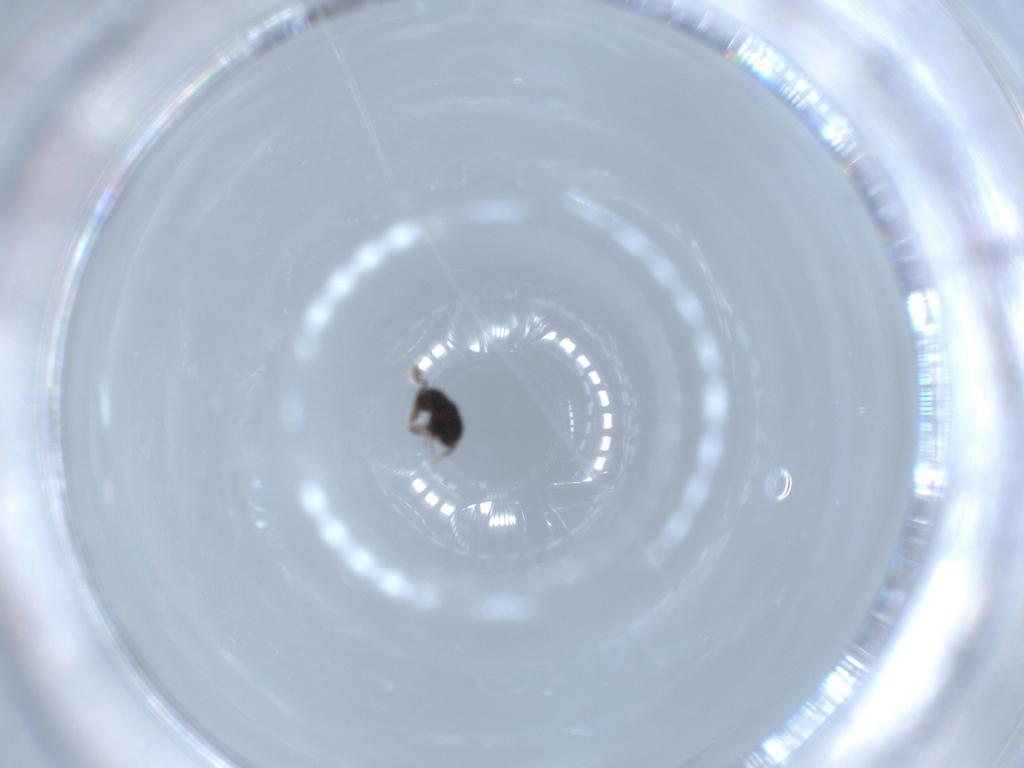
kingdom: Animalia
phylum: Arthropoda
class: Insecta
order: Hymenoptera
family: Scelionidae
